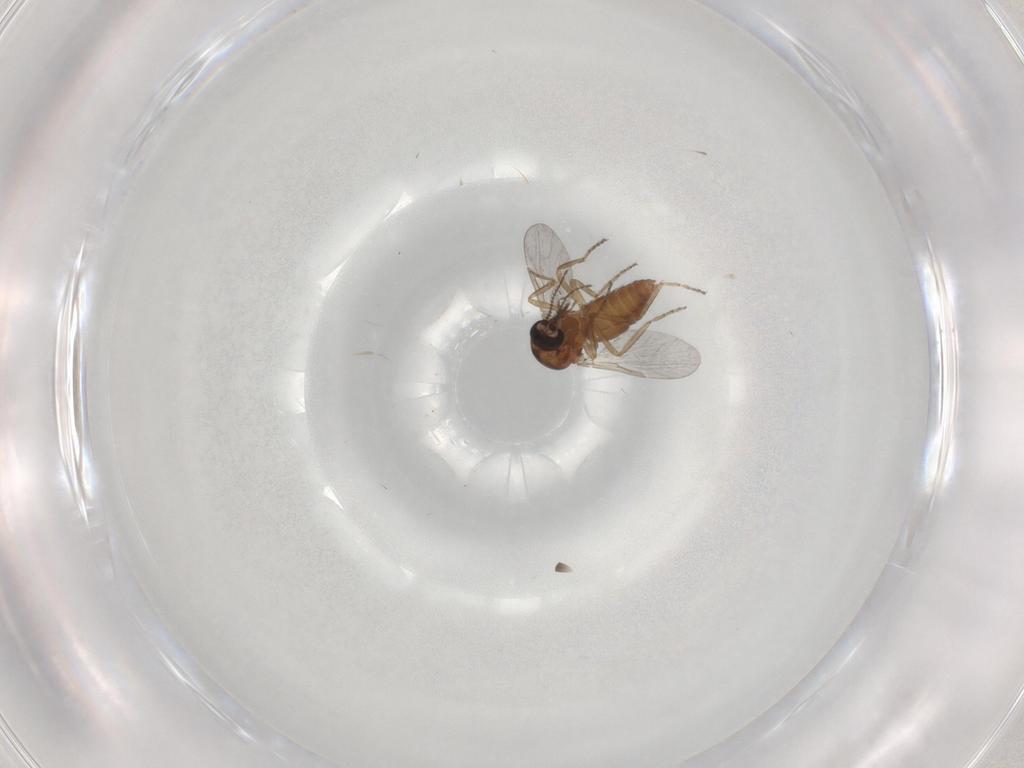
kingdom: Animalia
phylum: Arthropoda
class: Insecta
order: Diptera
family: Ceratopogonidae
